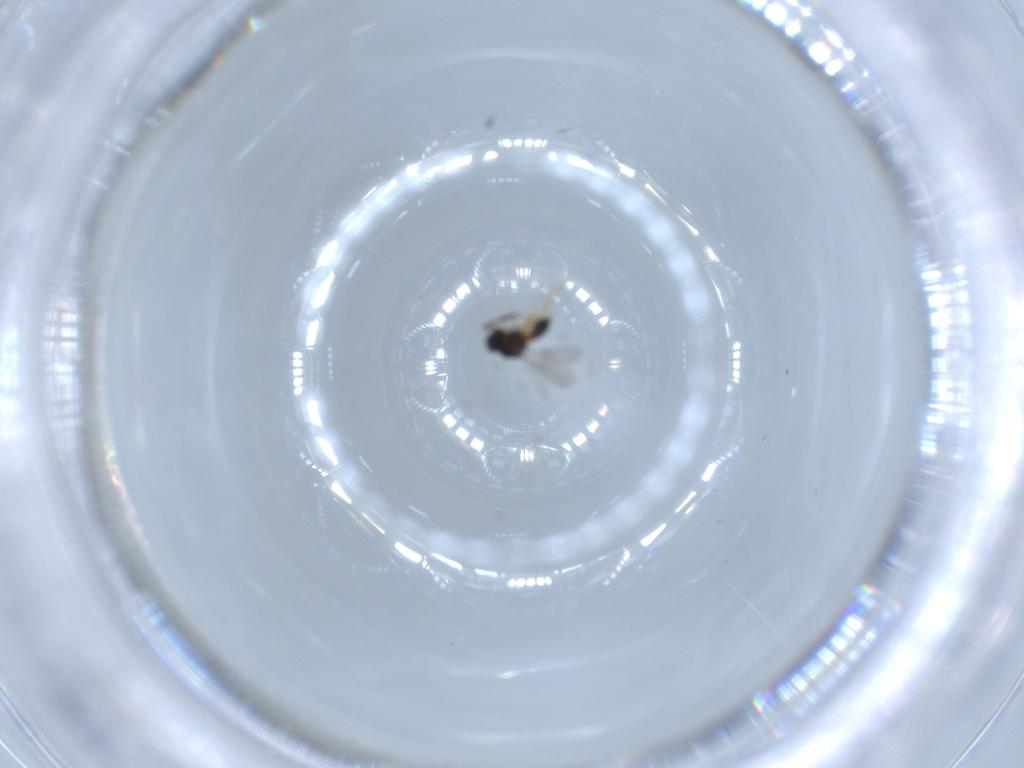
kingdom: Animalia
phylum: Arthropoda
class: Insecta
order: Hymenoptera
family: Scelionidae
